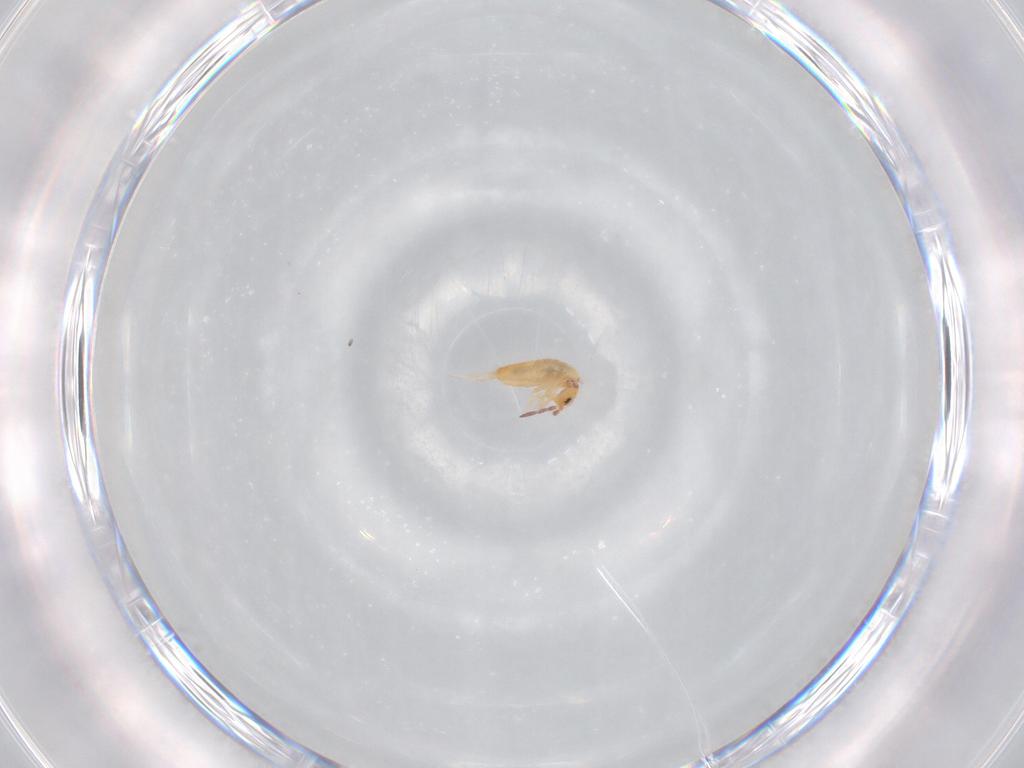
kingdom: Animalia
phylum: Arthropoda
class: Collembola
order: Entomobryomorpha
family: Entomobryidae
